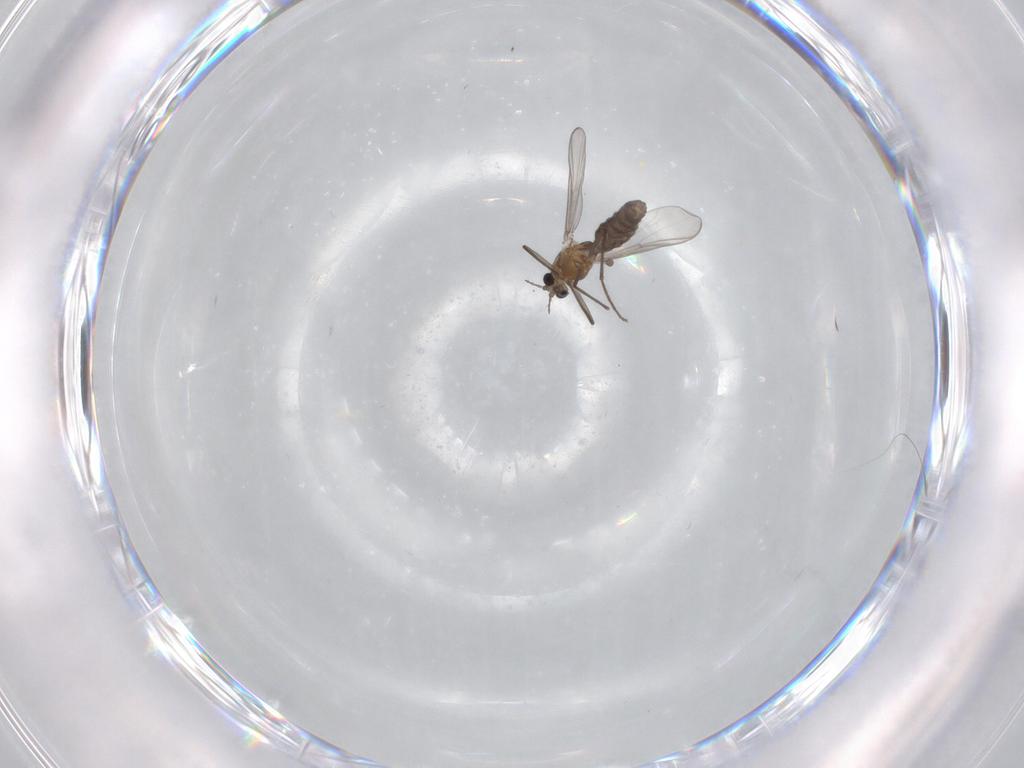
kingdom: Animalia
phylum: Arthropoda
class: Insecta
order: Diptera
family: Chironomidae
